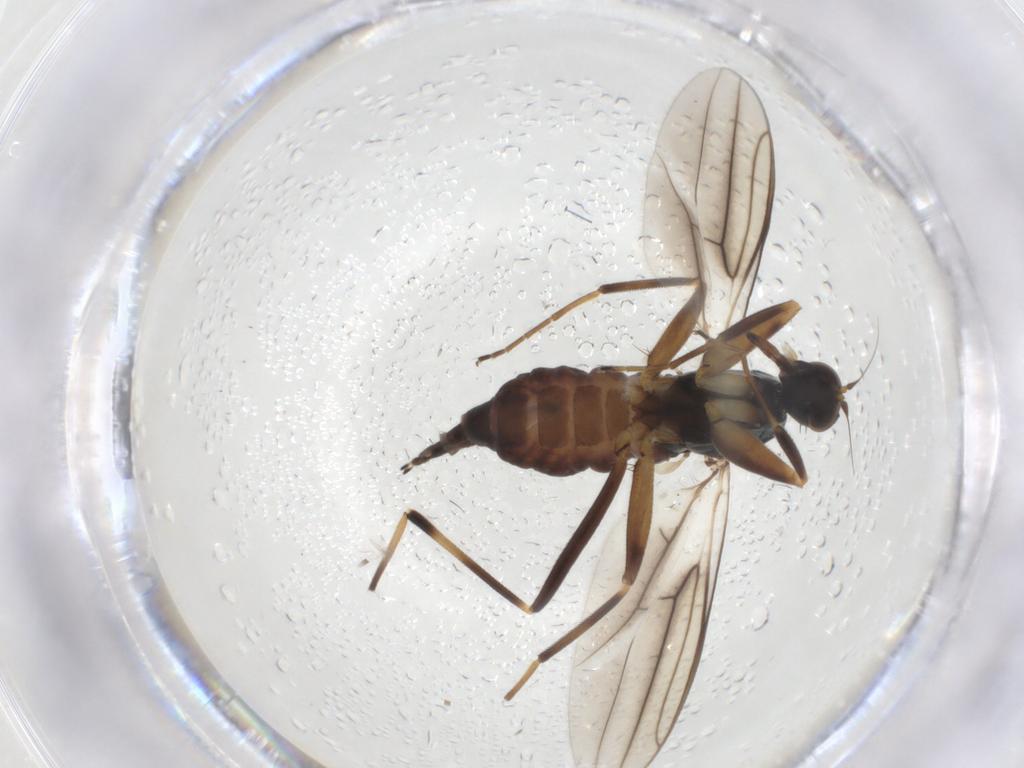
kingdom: Animalia
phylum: Arthropoda
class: Insecta
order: Diptera
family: Hybotidae
